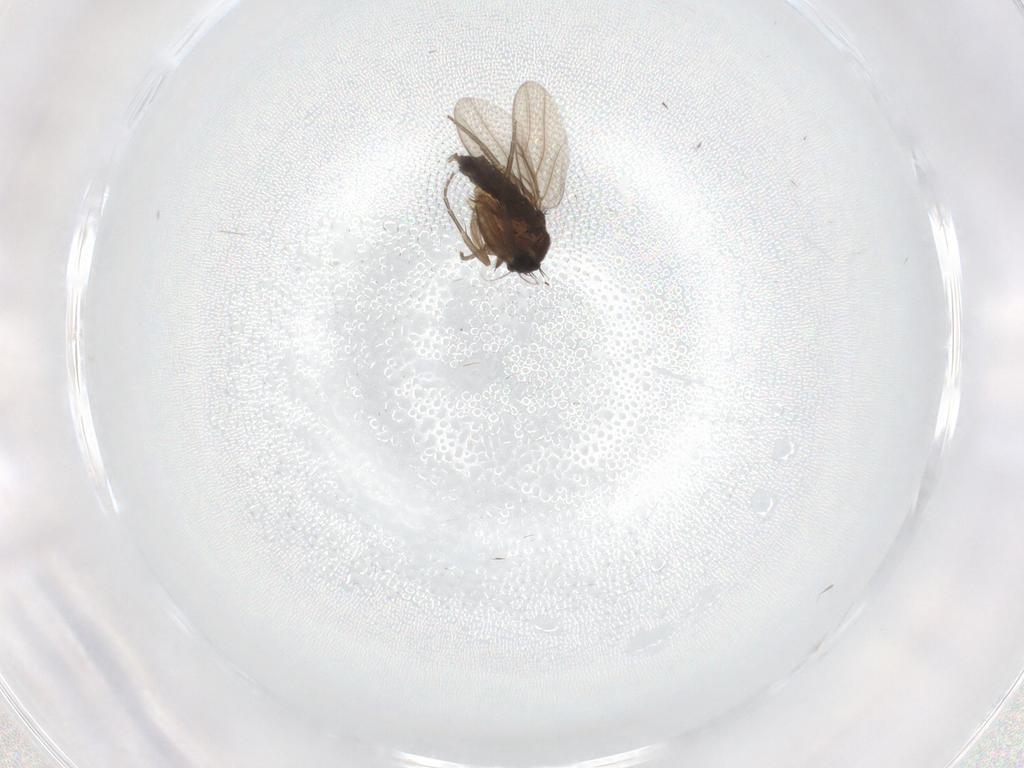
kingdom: Animalia
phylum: Arthropoda
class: Insecta
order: Diptera
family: Phoridae
